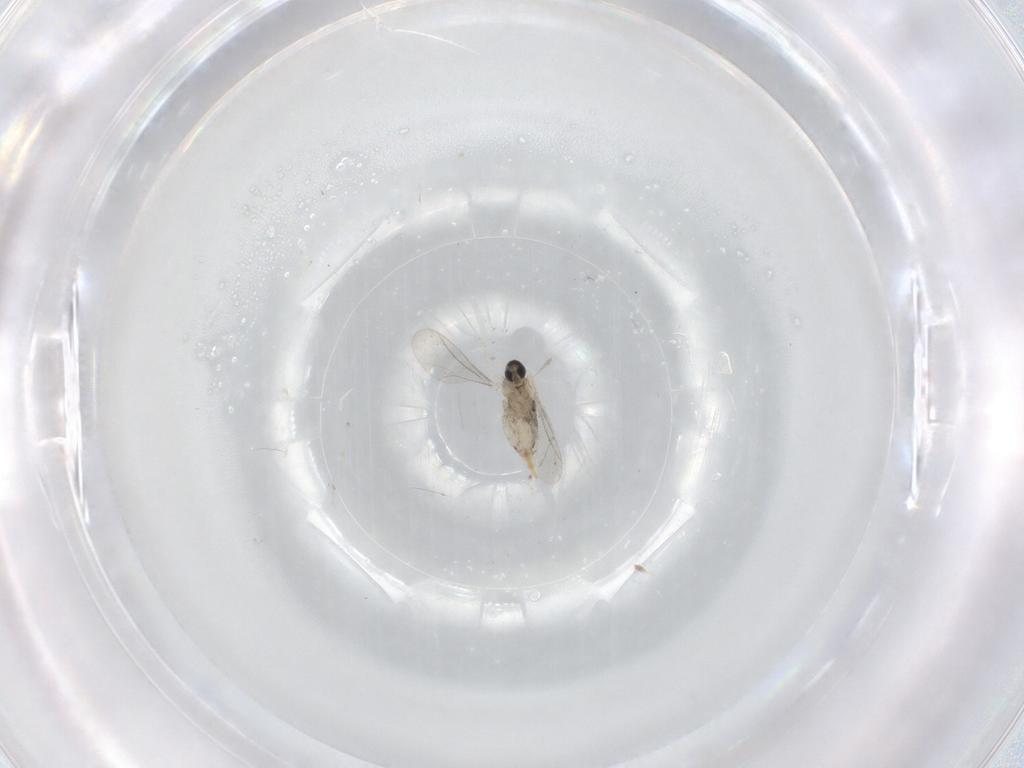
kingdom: Animalia
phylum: Arthropoda
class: Insecta
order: Diptera
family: Cecidomyiidae
